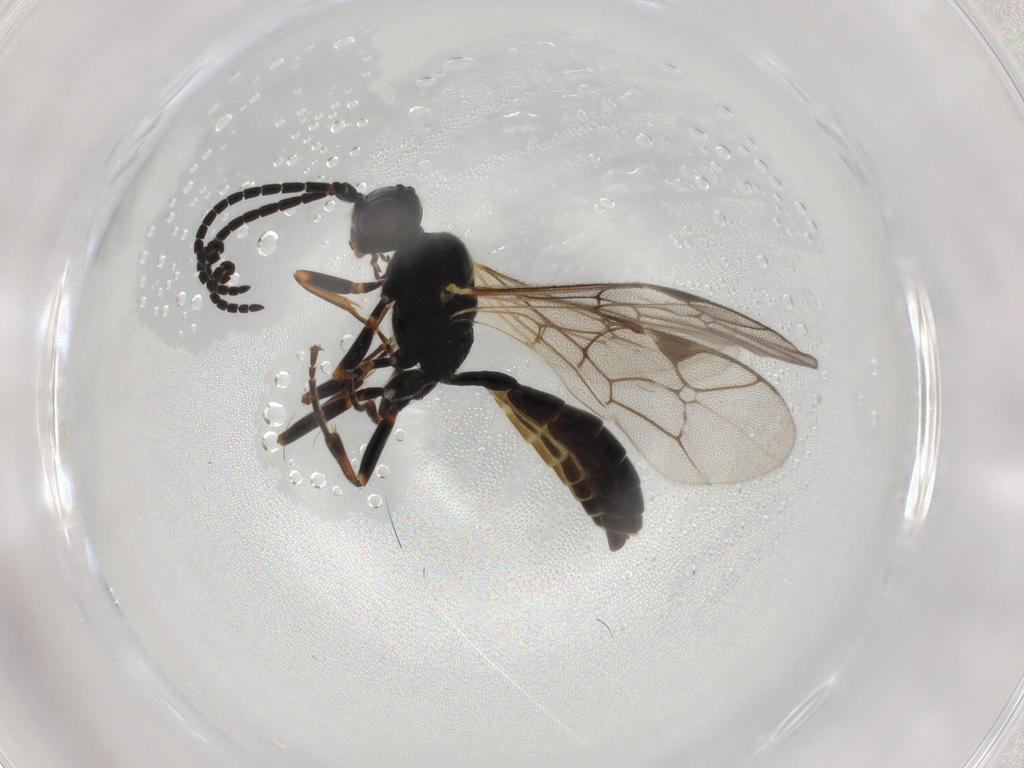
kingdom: Animalia
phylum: Arthropoda
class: Insecta
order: Hymenoptera
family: Ichneumonidae
